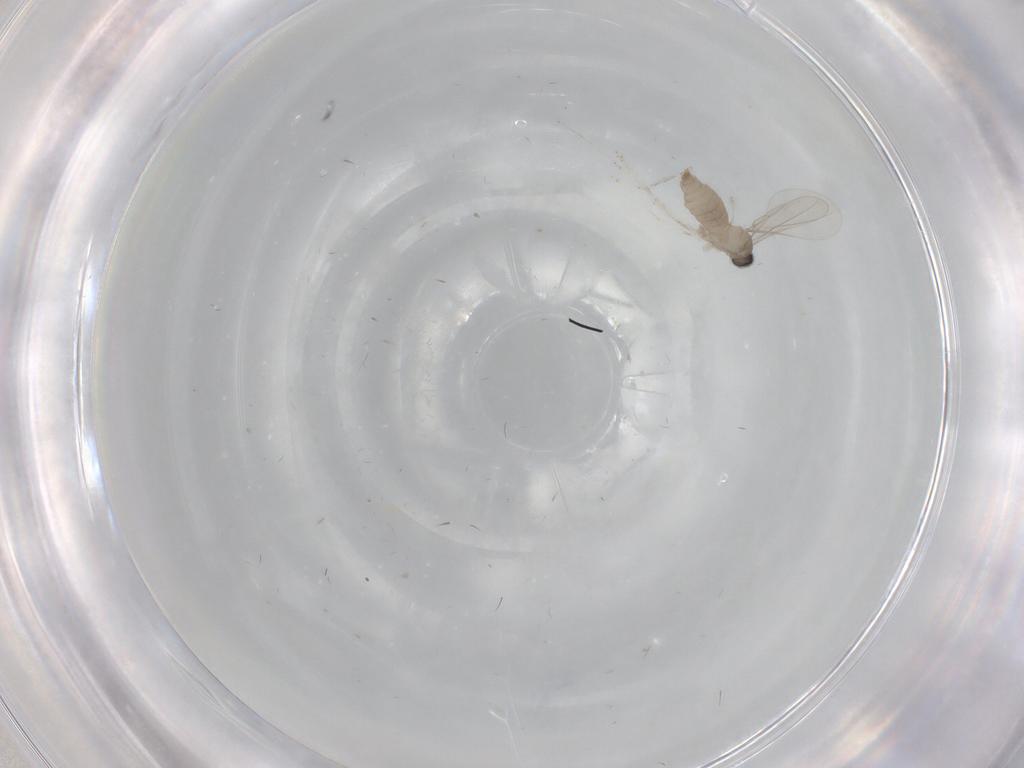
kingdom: Animalia
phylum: Arthropoda
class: Insecta
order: Diptera
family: Cecidomyiidae
